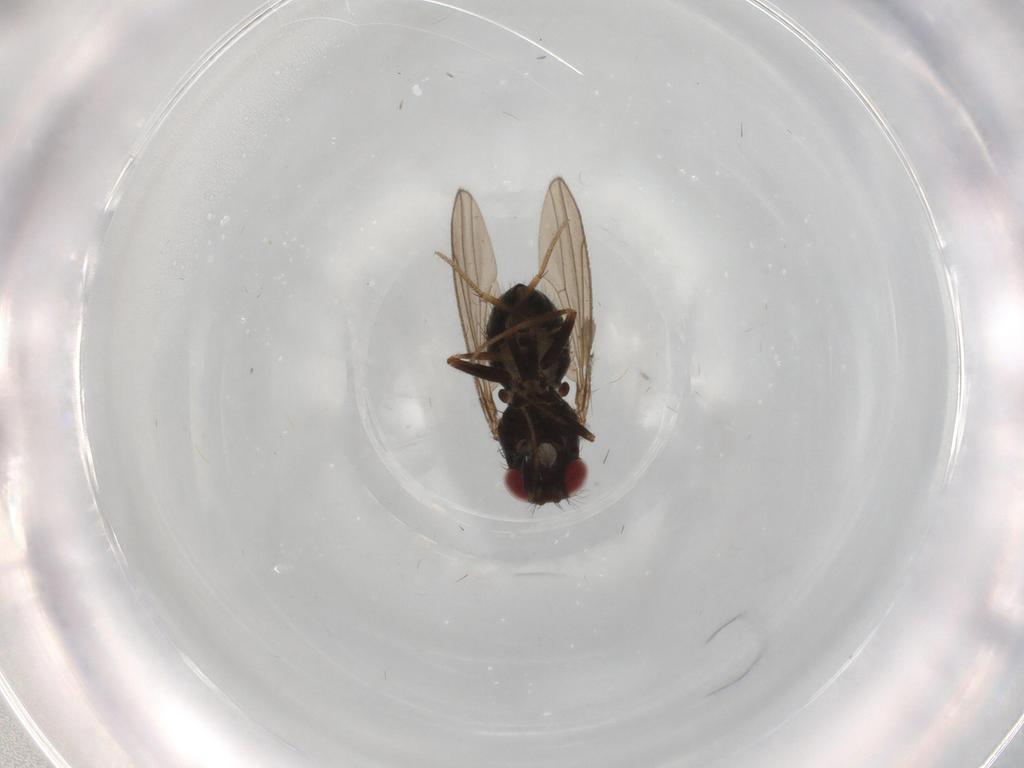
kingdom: Animalia
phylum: Arthropoda
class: Insecta
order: Diptera
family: Drosophilidae
